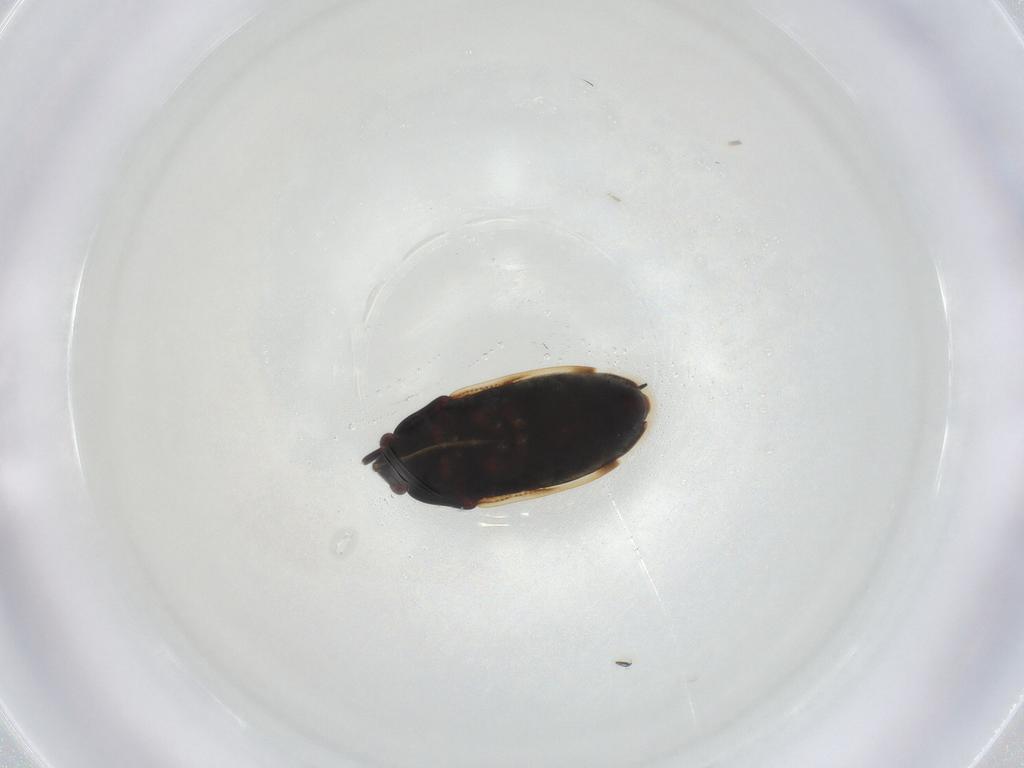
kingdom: Animalia
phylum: Arthropoda
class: Insecta
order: Hemiptera
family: Rhyparochromidae
